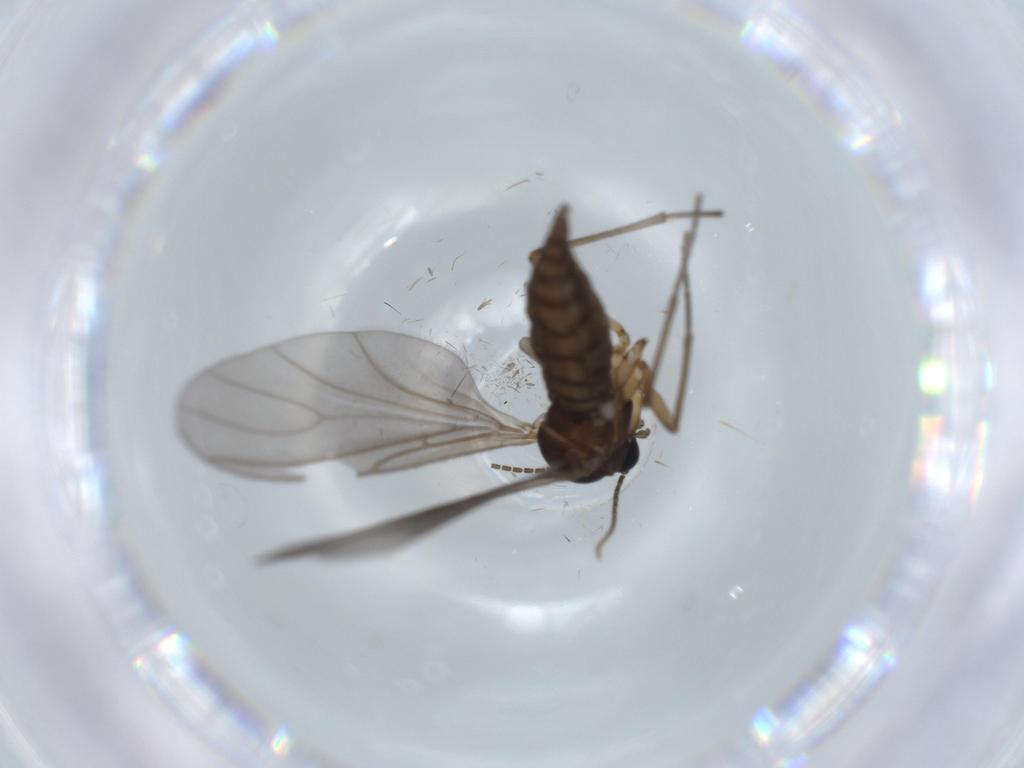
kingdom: Animalia
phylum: Arthropoda
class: Insecta
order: Diptera
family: Sciaridae
